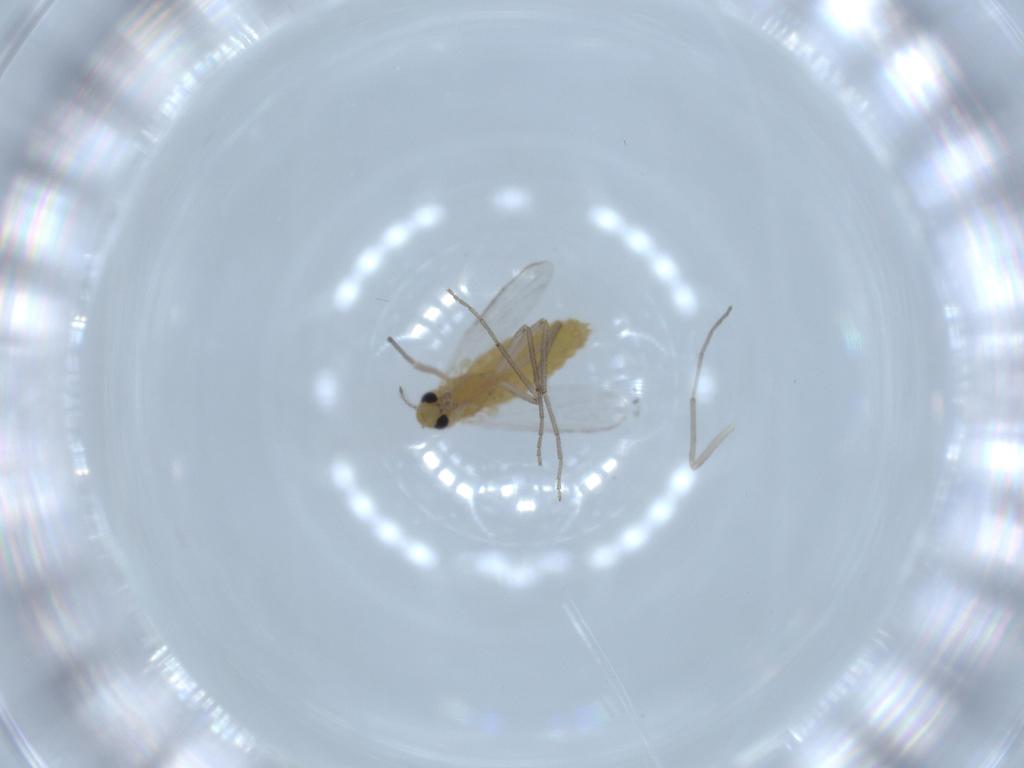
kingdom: Animalia
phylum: Arthropoda
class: Insecta
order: Diptera
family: Chironomidae
